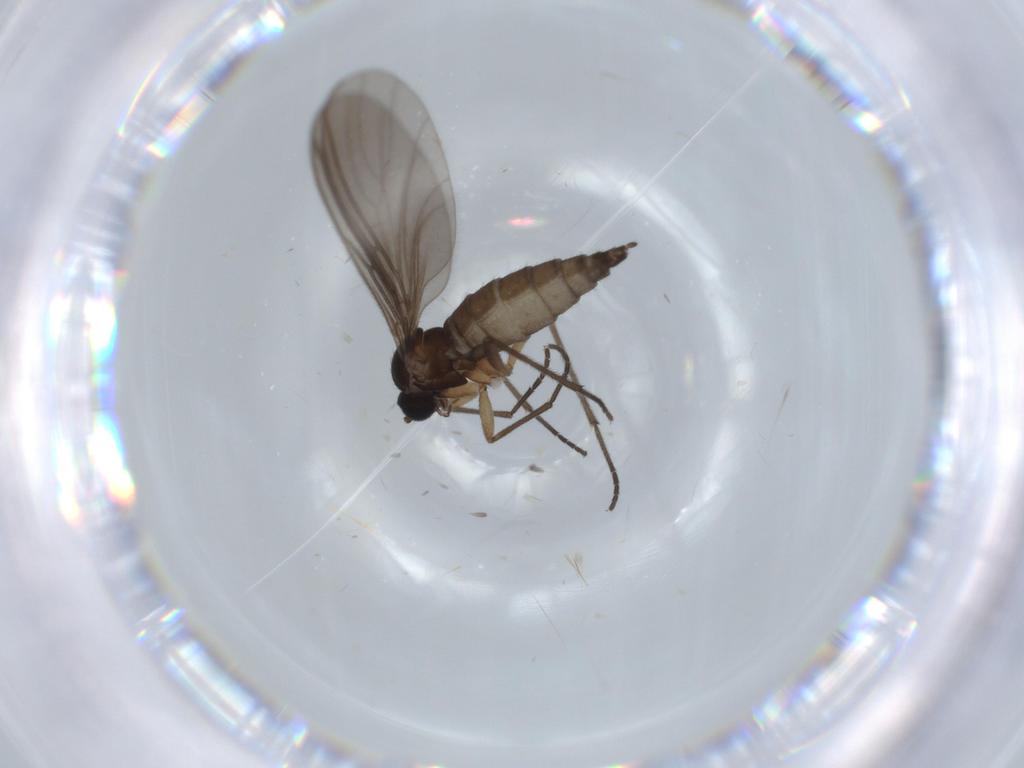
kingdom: Animalia
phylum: Arthropoda
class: Insecta
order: Diptera
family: Sciaridae
